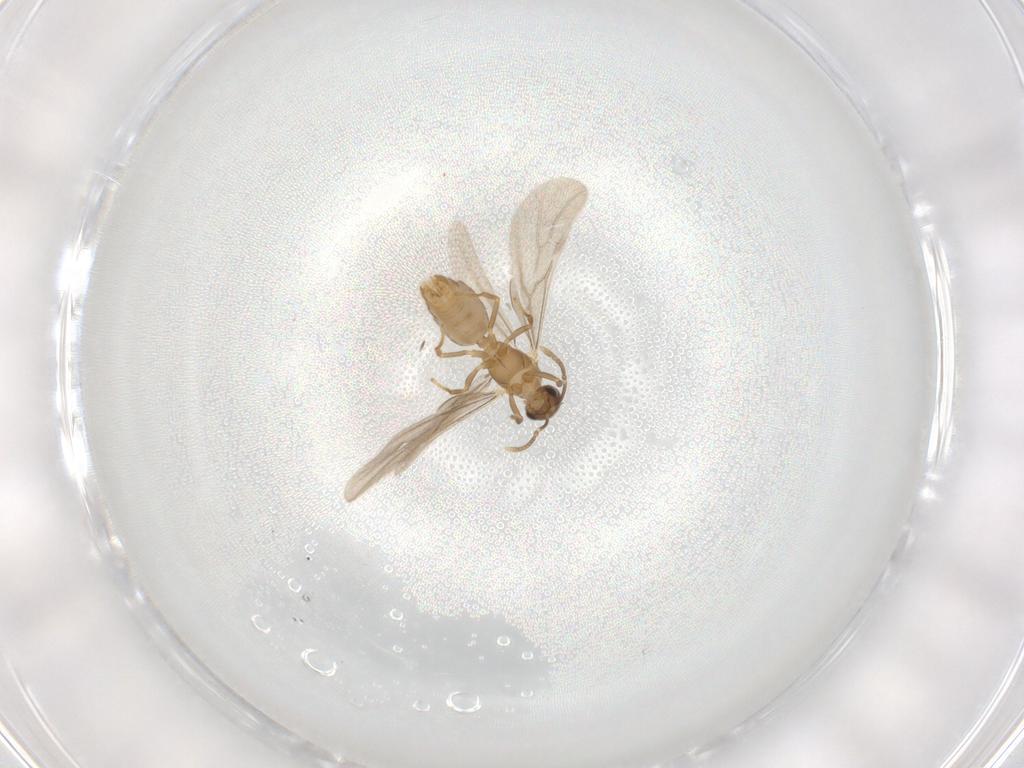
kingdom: Animalia
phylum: Arthropoda
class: Insecta
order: Hymenoptera
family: Formicidae
